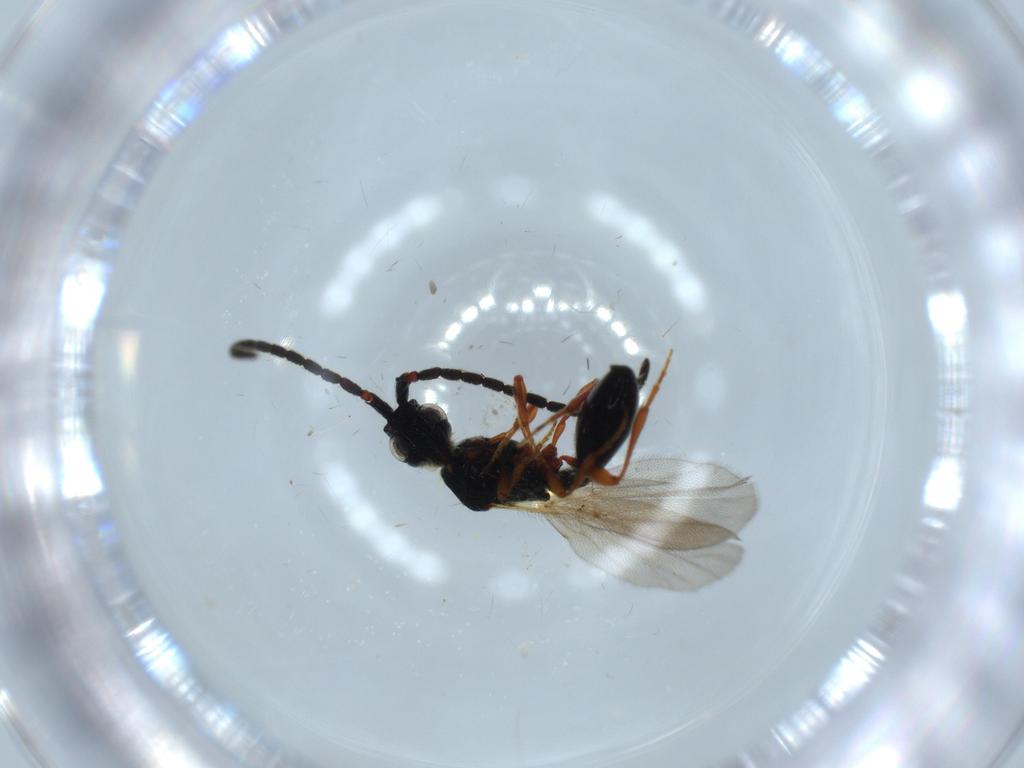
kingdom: Animalia
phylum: Arthropoda
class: Insecta
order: Hymenoptera
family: Diapriidae
